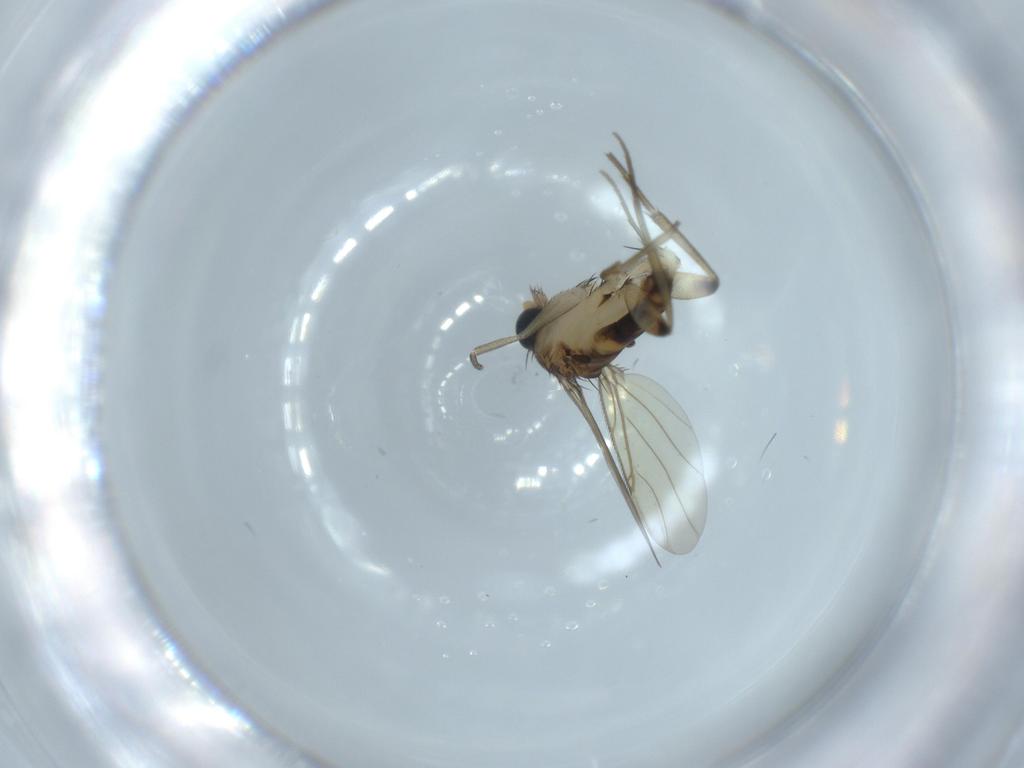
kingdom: Animalia
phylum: Arthropoda
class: Insecta
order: Diptera
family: Phoridae
